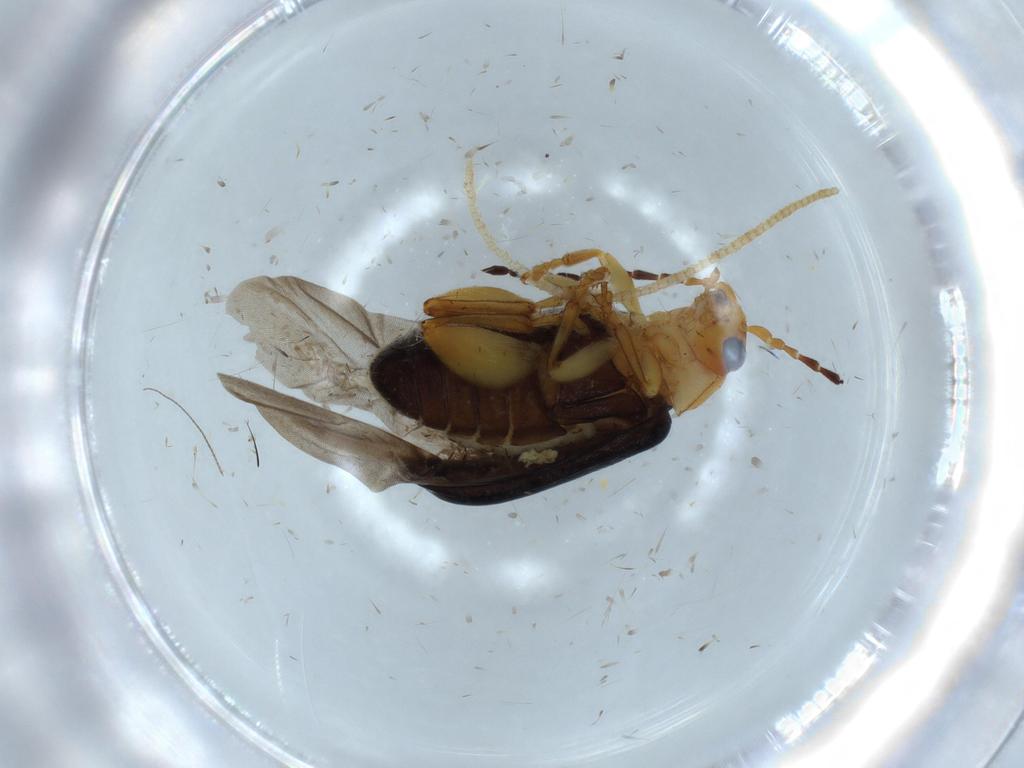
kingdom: Animalia
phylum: Arthropoda
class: Insecta
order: Coleoptera
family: Chrysomelidae
